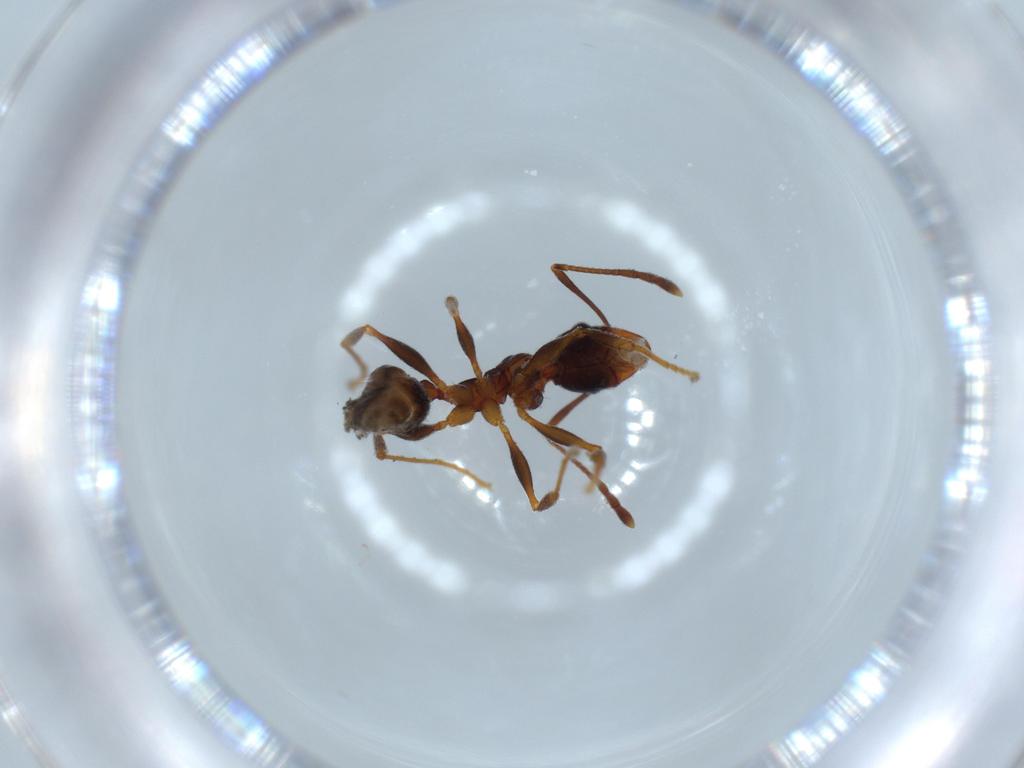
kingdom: Animalia
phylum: Arthropoda
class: Insecta
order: Hymenoptera
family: Formicidae
